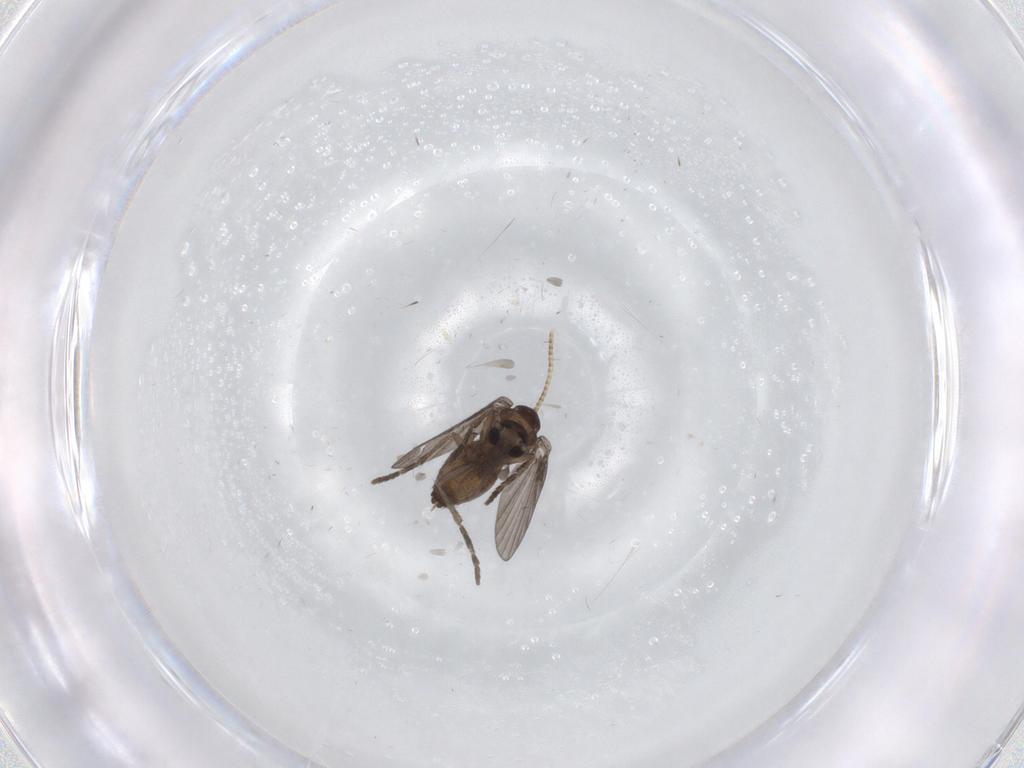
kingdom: Animalia
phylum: Arthropoda
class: Insecta
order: Diptera
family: Psychodidae
